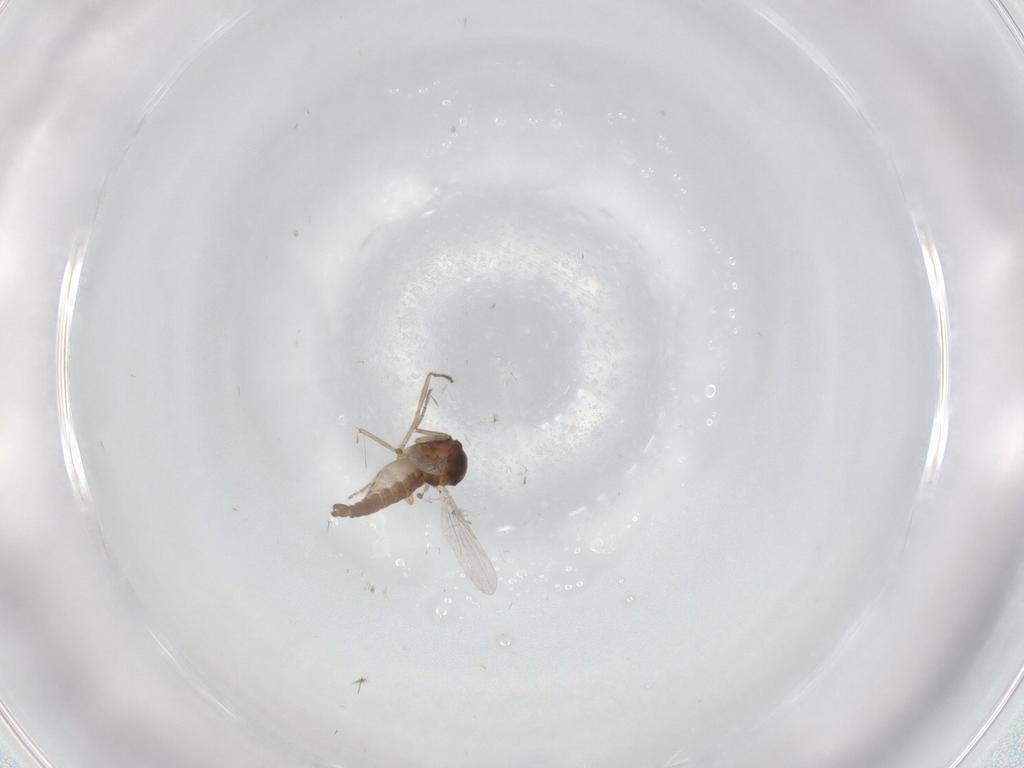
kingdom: Animalia
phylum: Arthropoda
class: Insecta
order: Diptera
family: Ceratopogonidae
